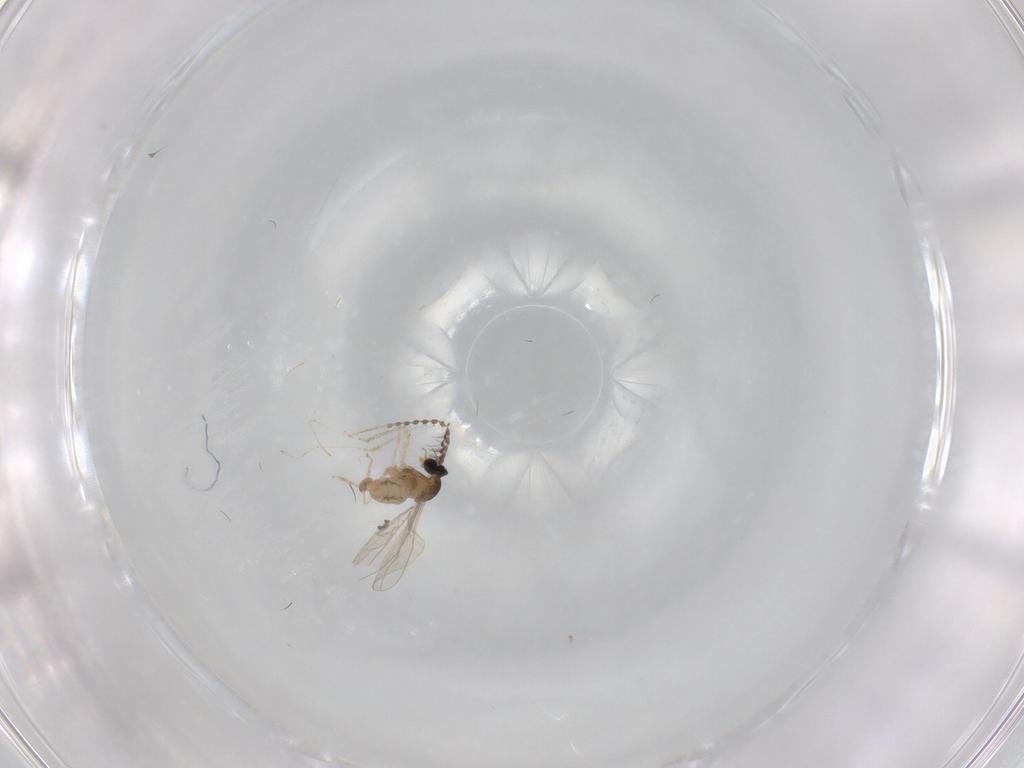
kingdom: Animalia
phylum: Arthropoda
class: Insecta
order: Diptera
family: Cecidomyiidae
